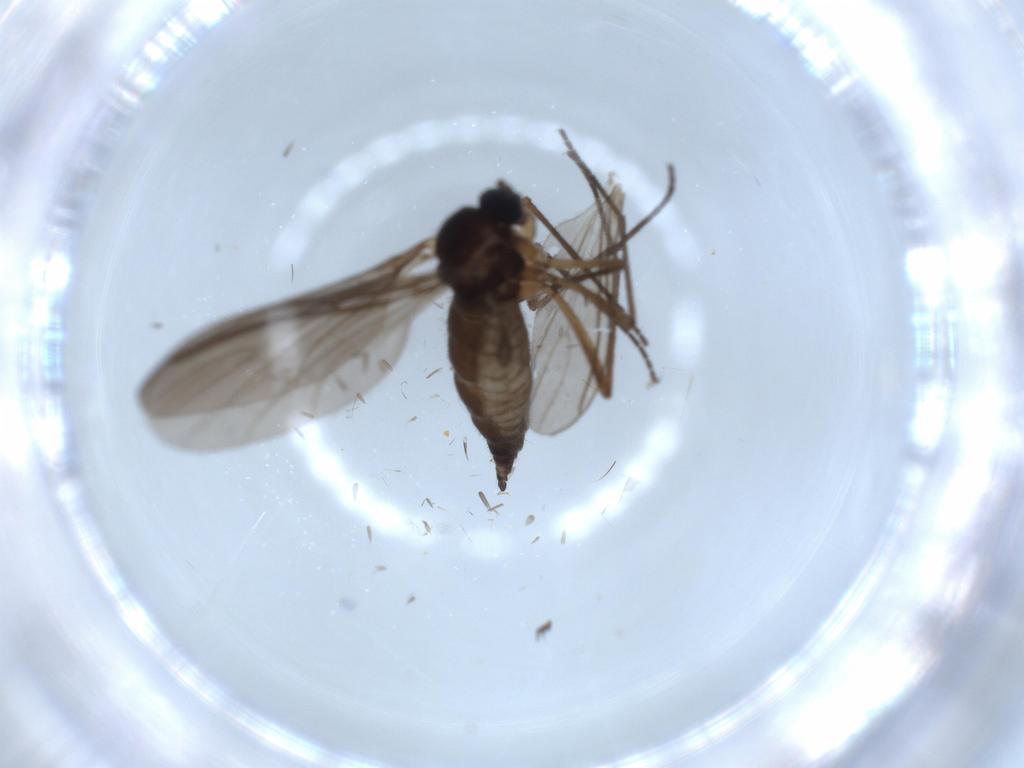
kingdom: Animalia
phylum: Arthropoda
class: Insecta
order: Diptera
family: Sciaridae
